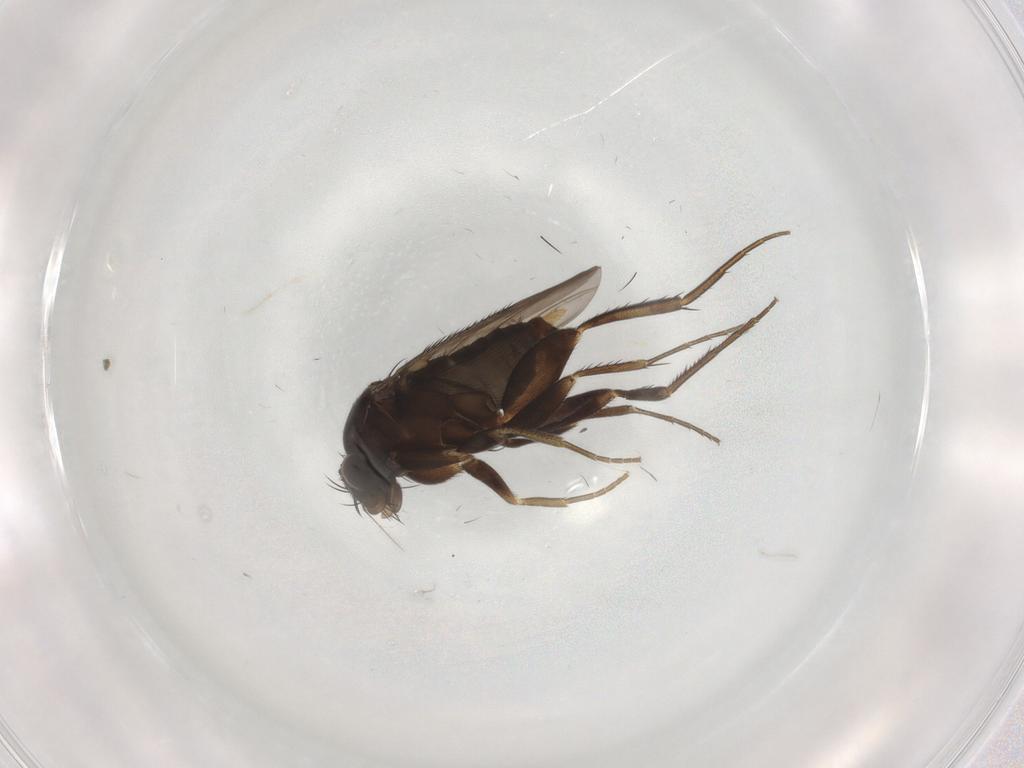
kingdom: Animalia
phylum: Arthropoda
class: Insecta
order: Diptera
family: Phoridae
